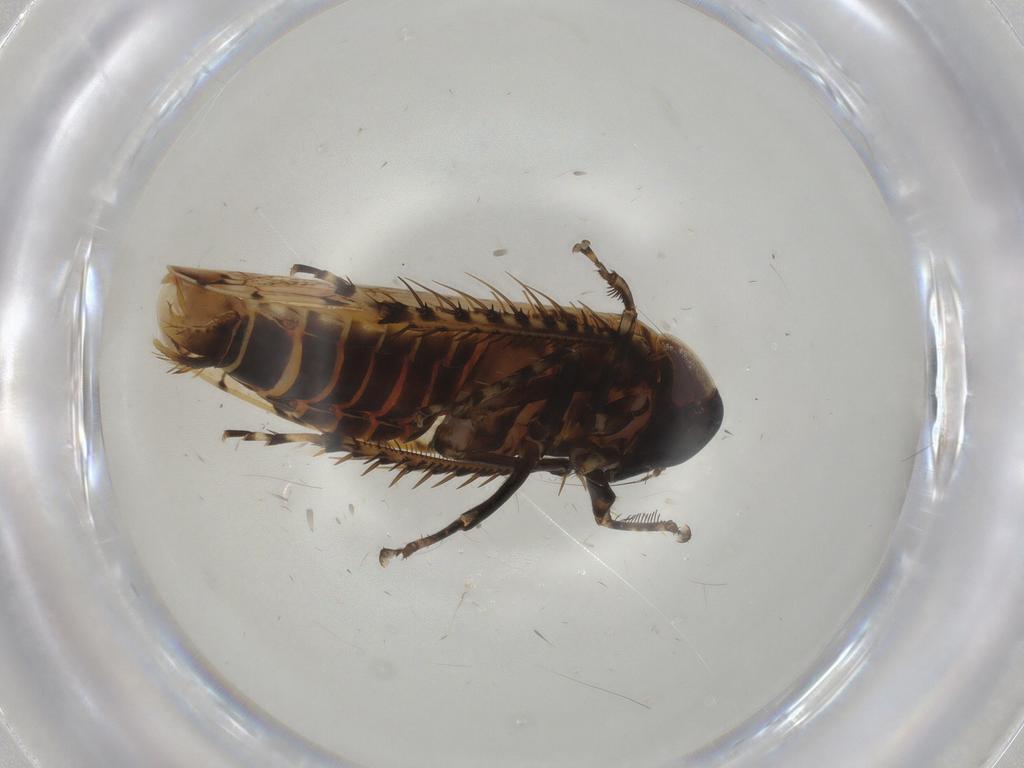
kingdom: Animalia
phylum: Arthropoda
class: Insecta
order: Hemiptera
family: Cicadellidae
